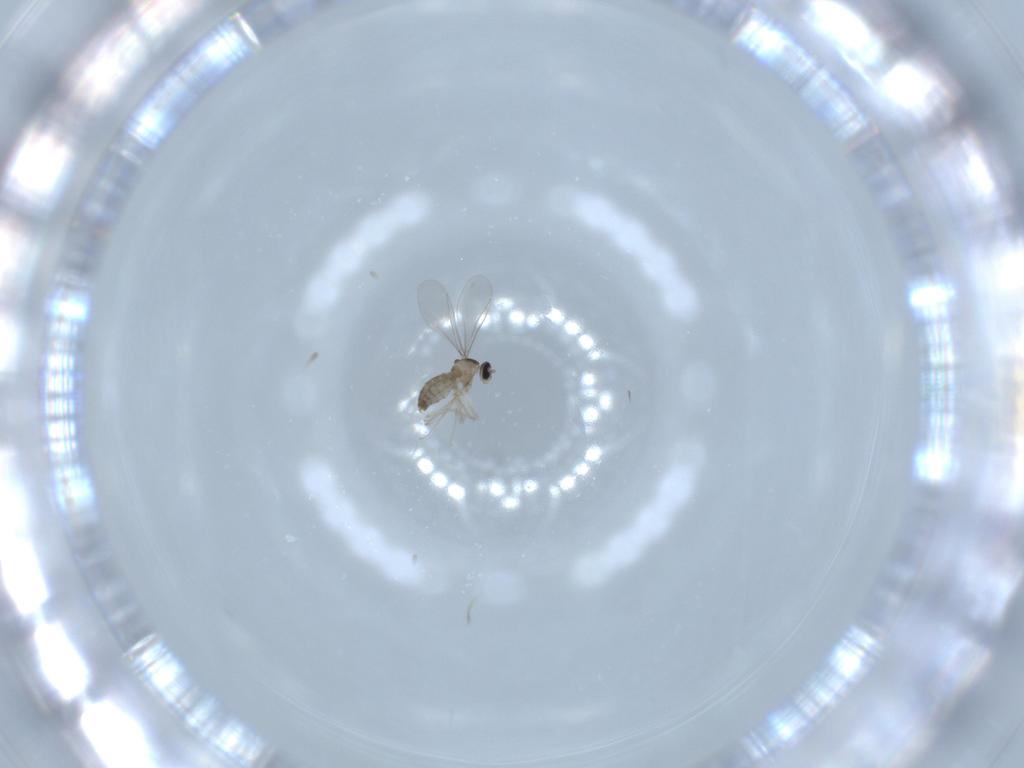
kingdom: Animalia
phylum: Arthropoda
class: Insecta
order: Diptera
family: Cecidomyiidae
